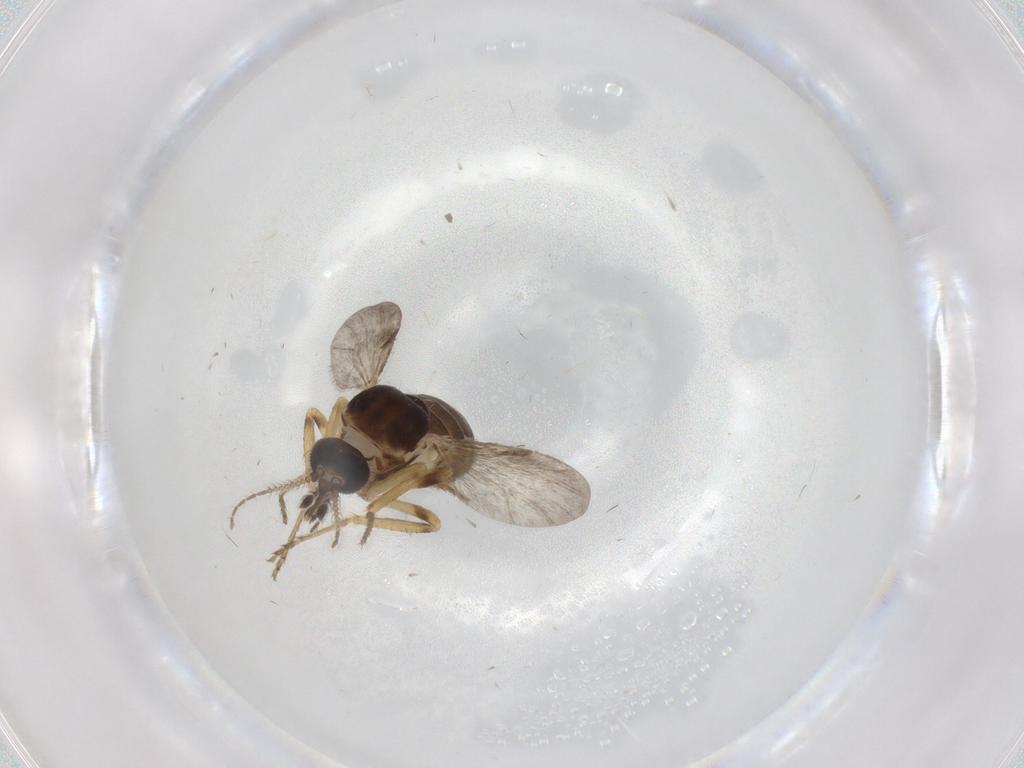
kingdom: Animalia
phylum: Arthropoda
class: Insecta
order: Diptera
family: Ceratopogonidae
